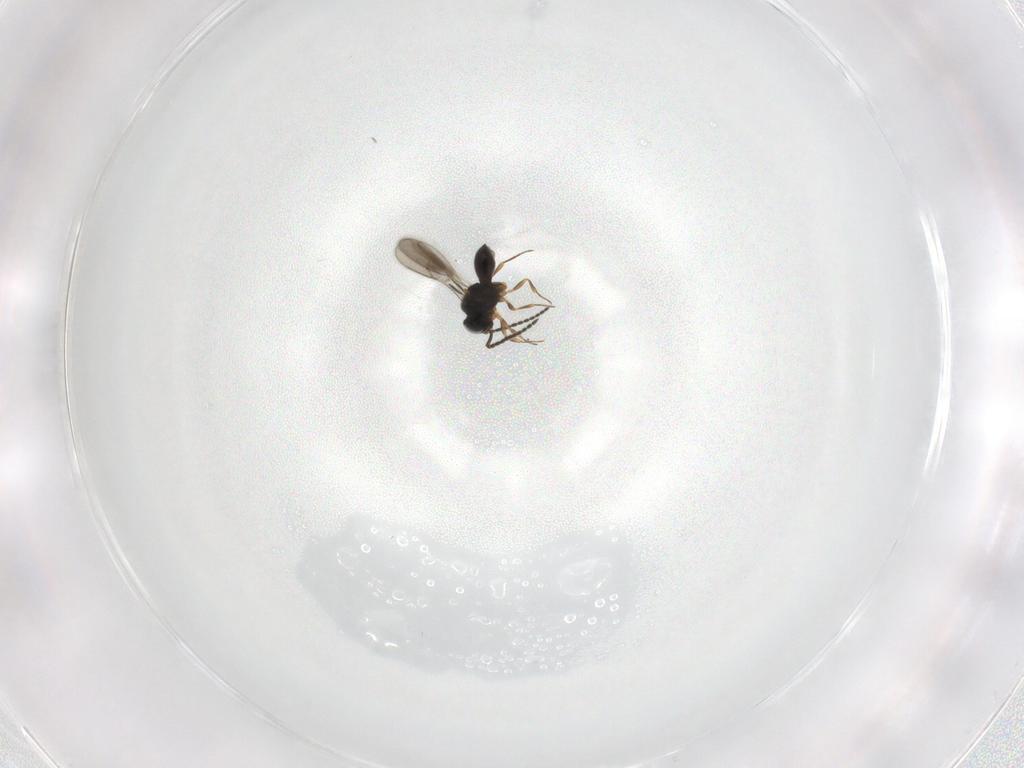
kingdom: Animalia
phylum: Arthropoda
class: Insecta
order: Hymenoptera
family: Scelionidae
